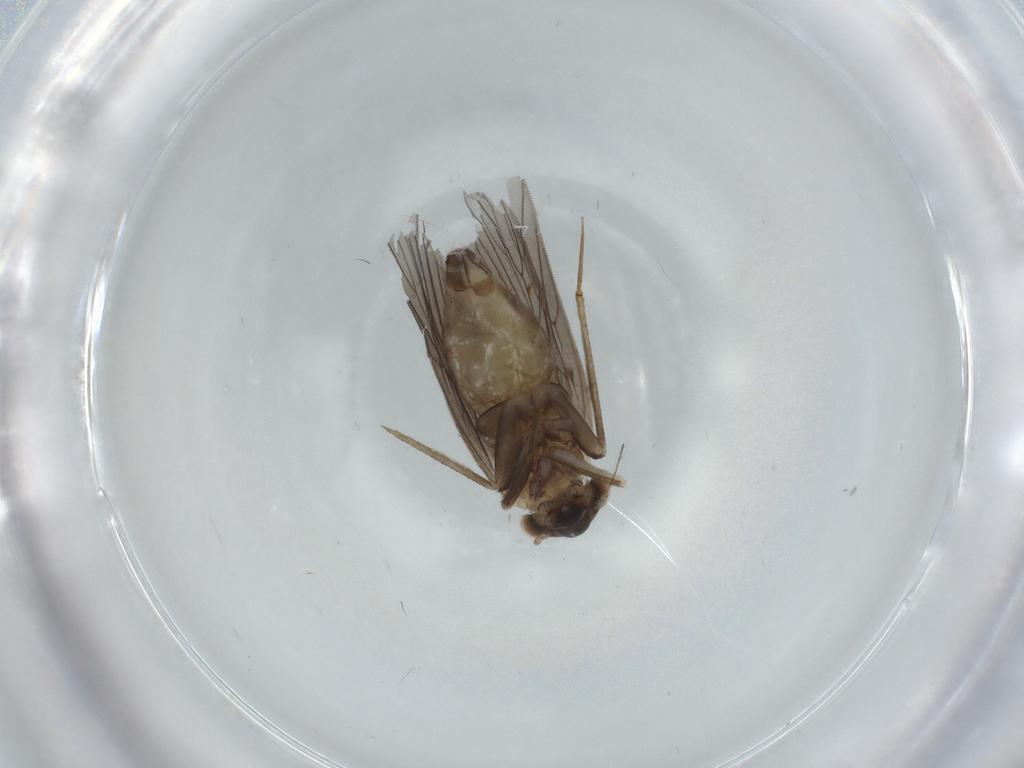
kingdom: Animalia
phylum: Arthropoda
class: Insecta
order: Psocodea
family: Lepidopsocidae
